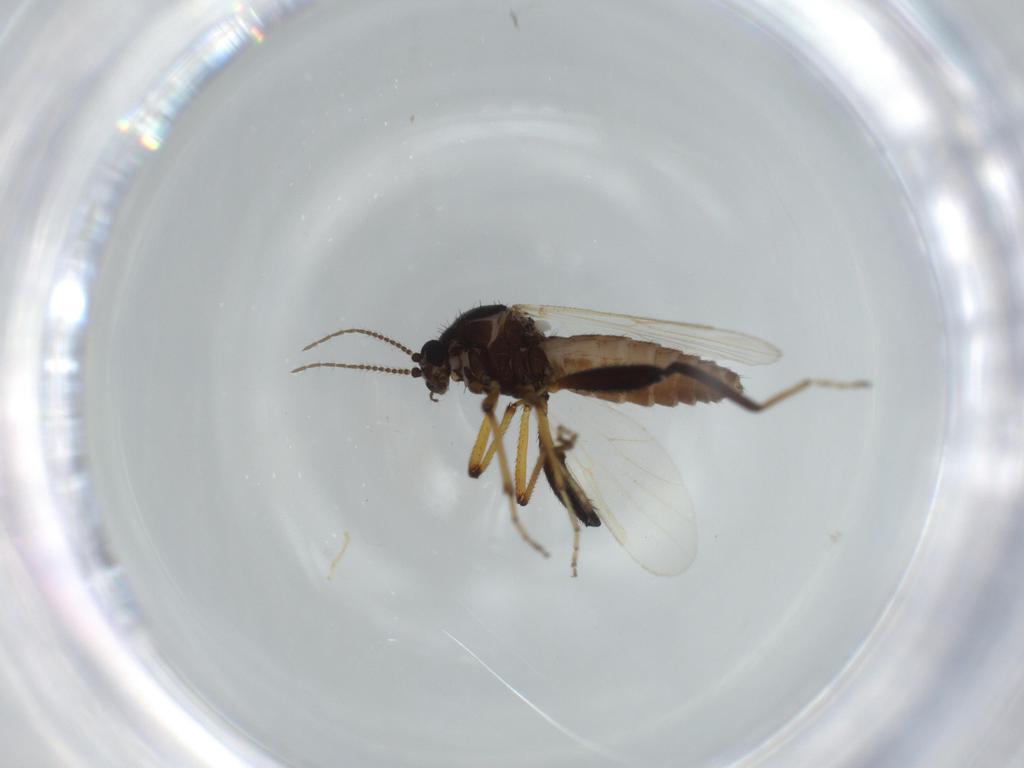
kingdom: Animalia
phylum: Arthropoda
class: Insecta
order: Diptera
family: Ceratopogonidae
